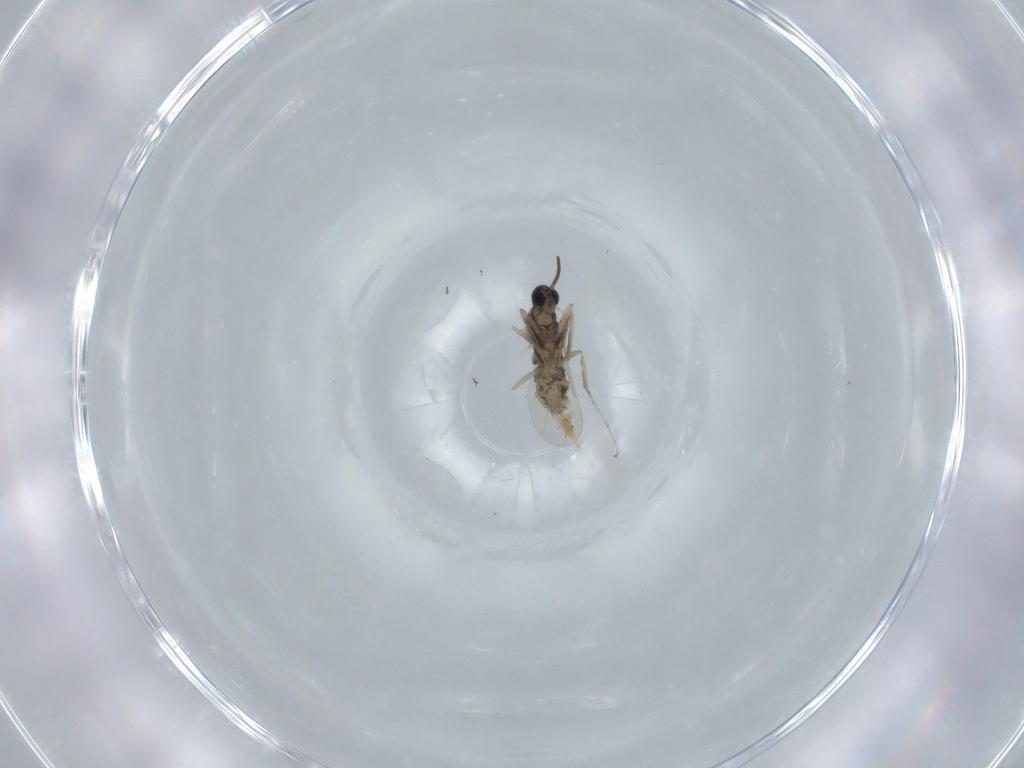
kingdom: Animalia
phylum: Arthropoda
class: Insecta
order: Diptera
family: Cecidomyiidae
